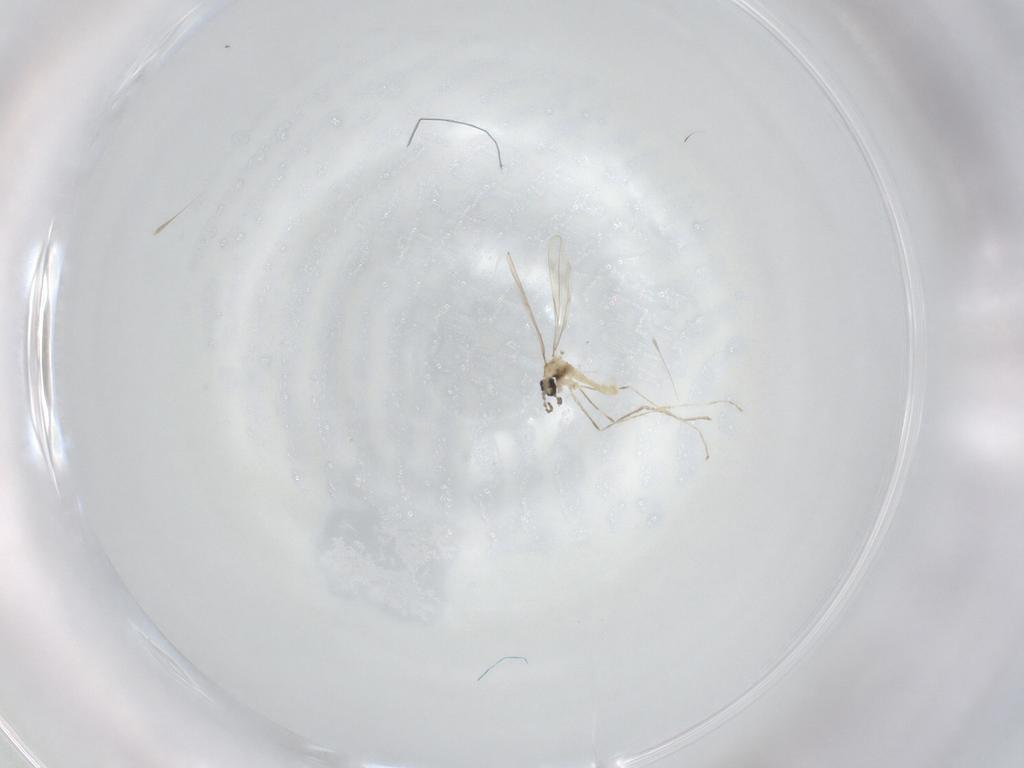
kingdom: Animalia
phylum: Arthropoda
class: Insecta
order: Diptera
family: Cecidomyiidae
